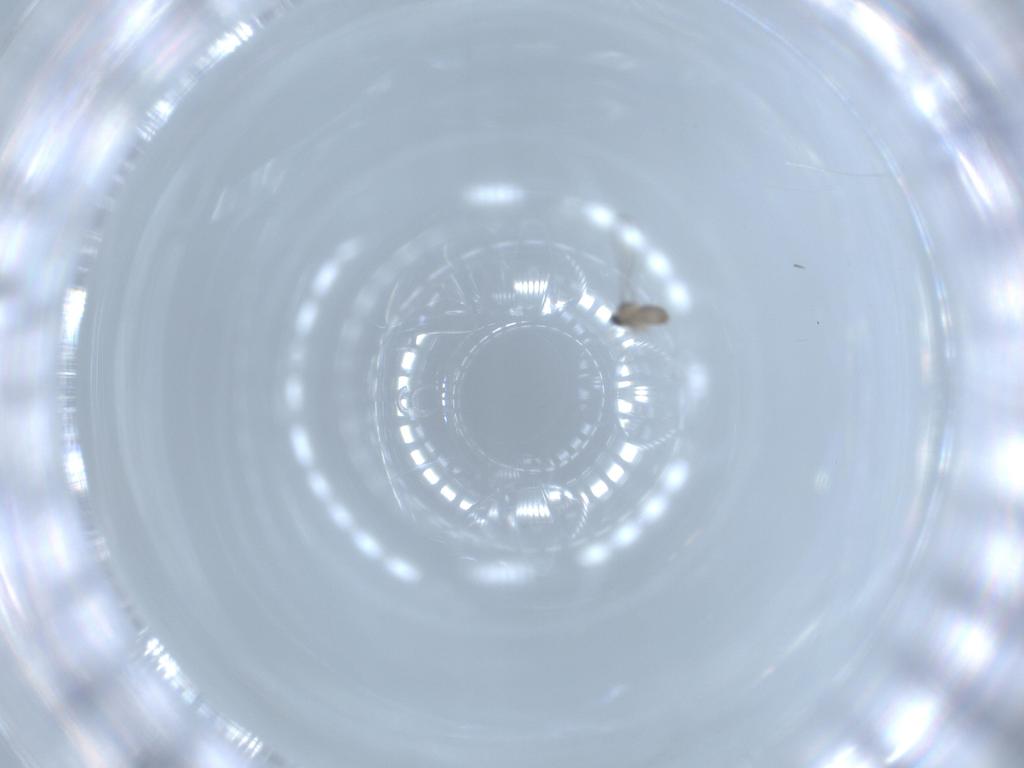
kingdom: Animalia
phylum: Arthropoda
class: Insecta
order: Diptera
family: Cecidomyiidae
